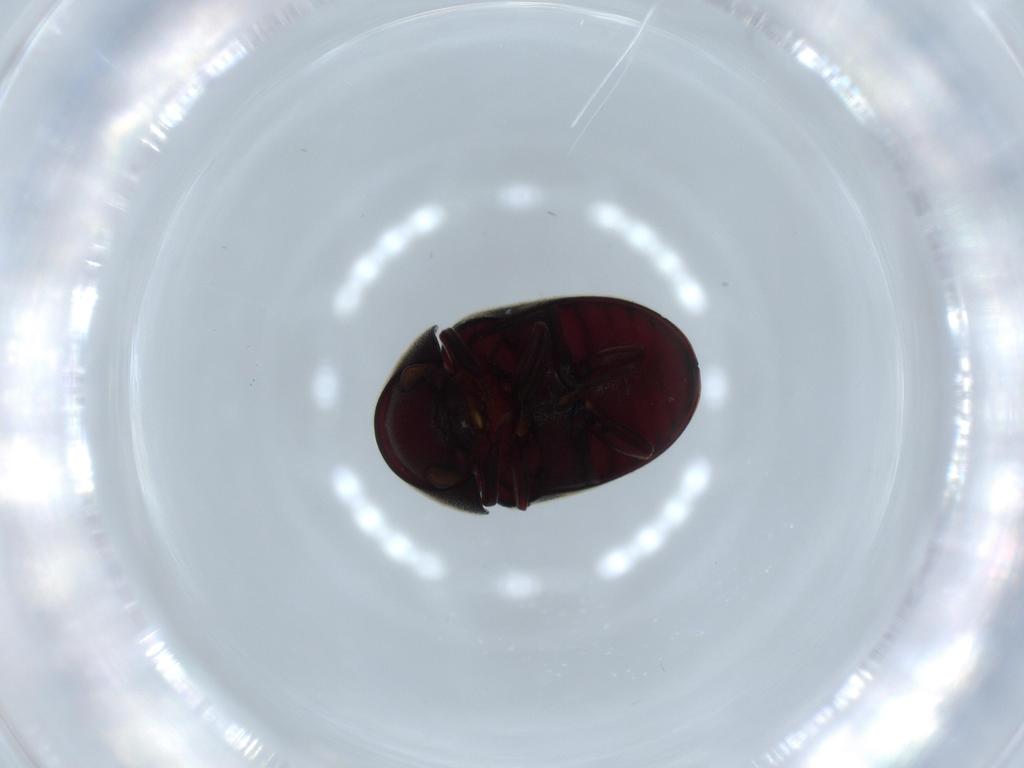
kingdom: Animalia
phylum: Arthropoda
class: Insecta
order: Coleoptera
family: Ptinidae
